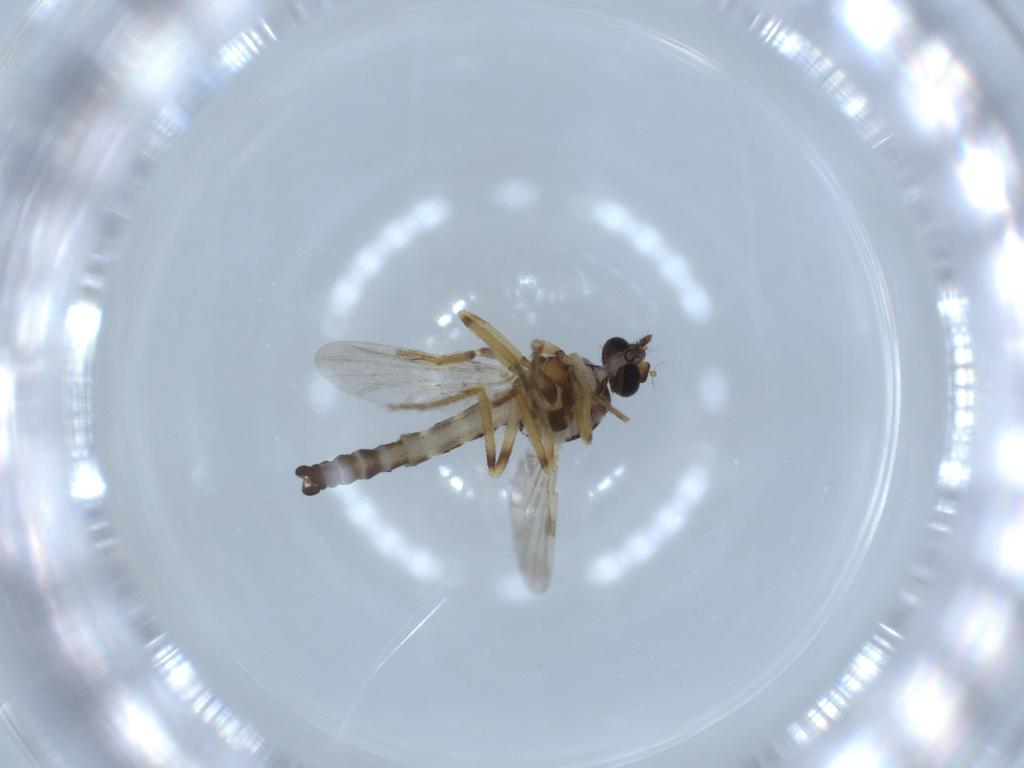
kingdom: Animalia
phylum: Arthropoda
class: Insecta
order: Diptera
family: Ceratopogonidae
